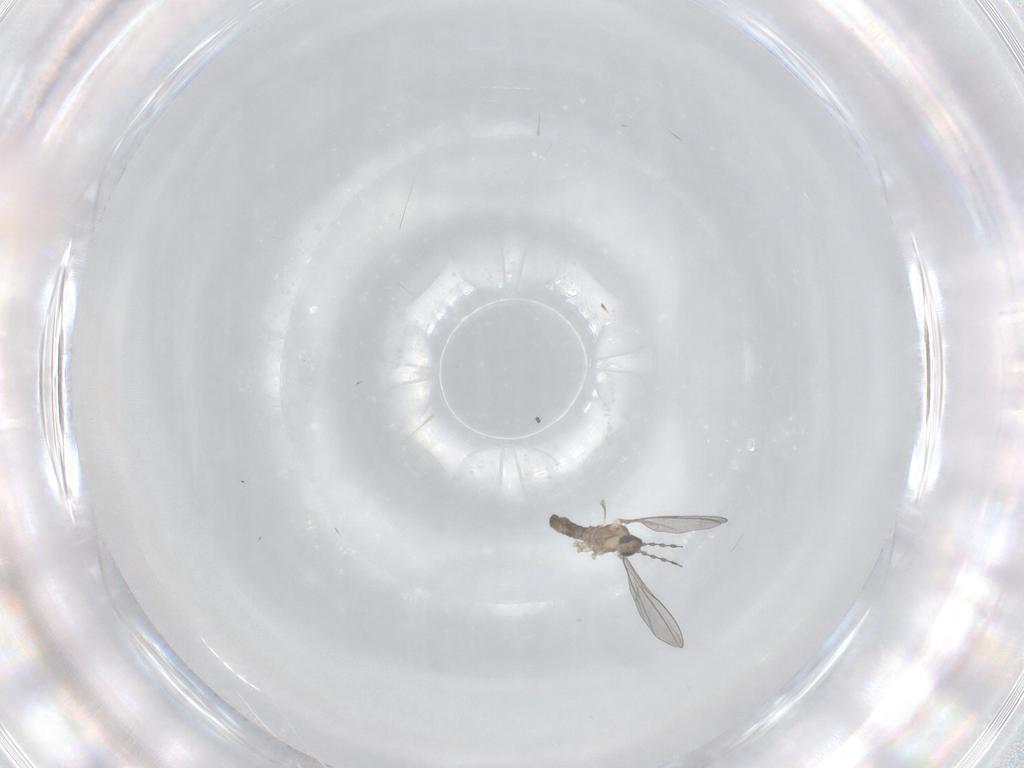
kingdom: Animalia
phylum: Arthropoda
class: Insecta
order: Diptera
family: Cecidomyiidae
